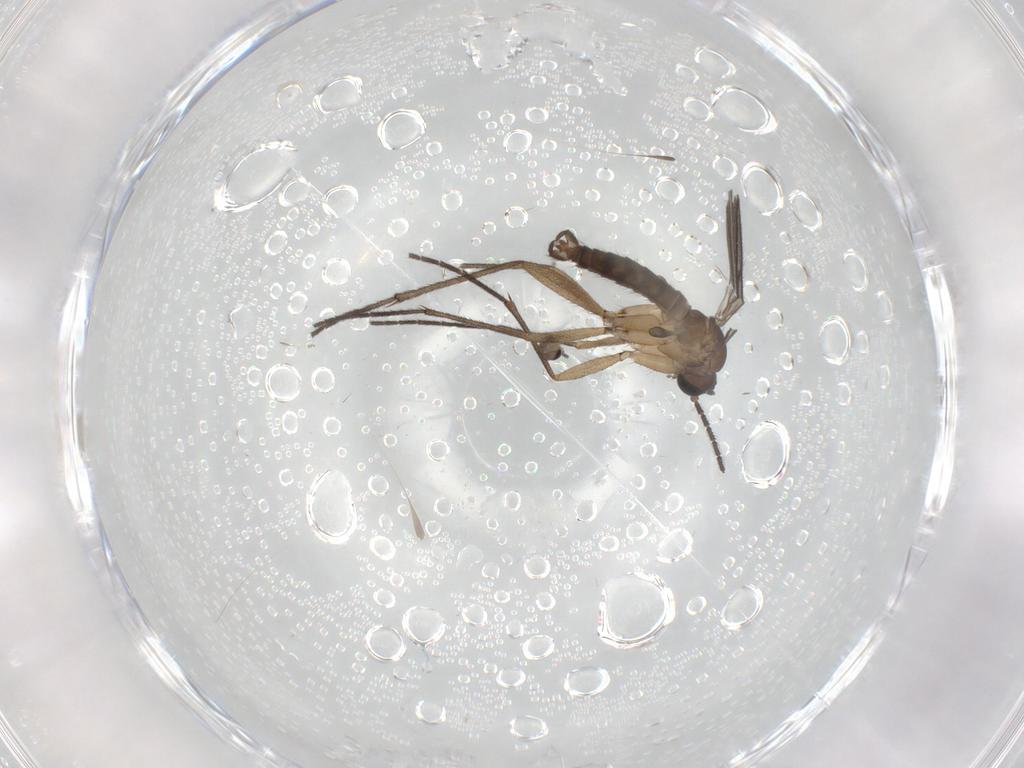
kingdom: Animalia
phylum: Arthropoda
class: Insecta
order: Diptera
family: Cecidomyiidae
